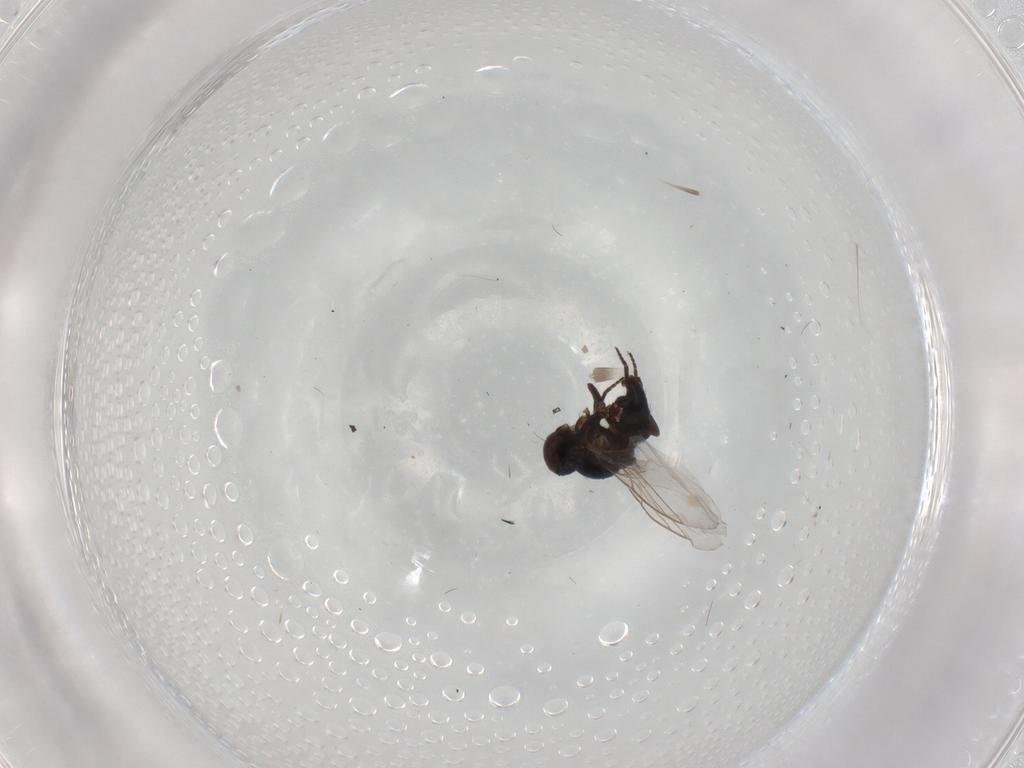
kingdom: Animalia
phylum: Arthropoda
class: Insecta
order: Diptera
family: Agromyzidae
